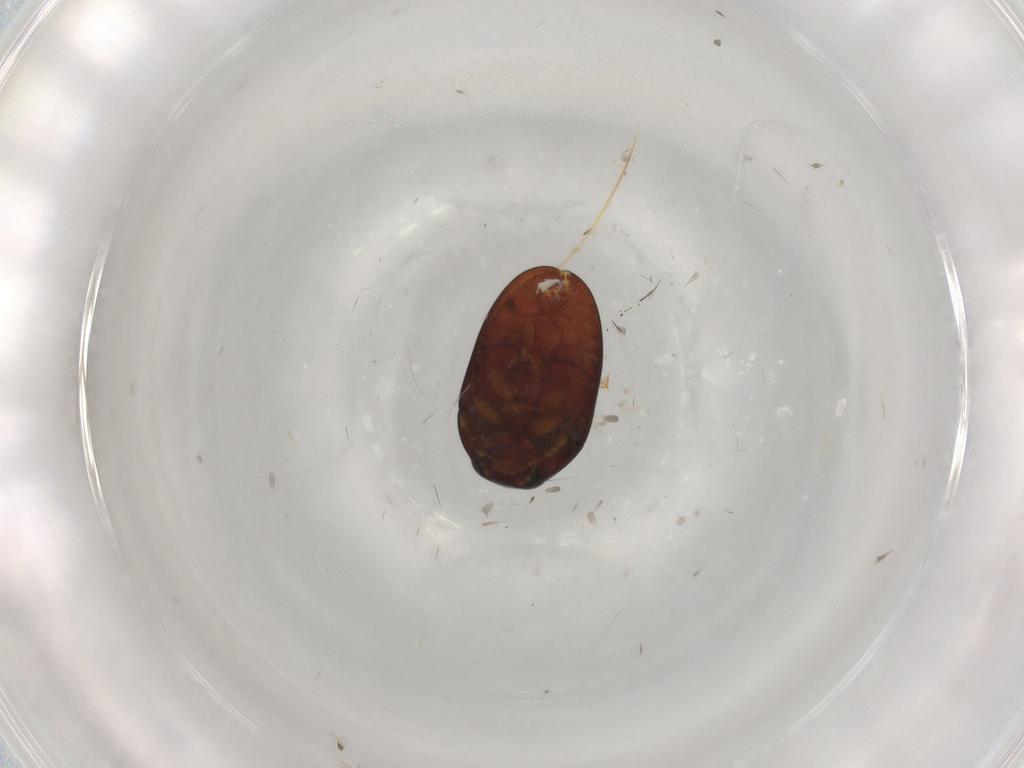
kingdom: Animalia
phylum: Arthropoda
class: Insecta
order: Coleoptera
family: Phalacridae
